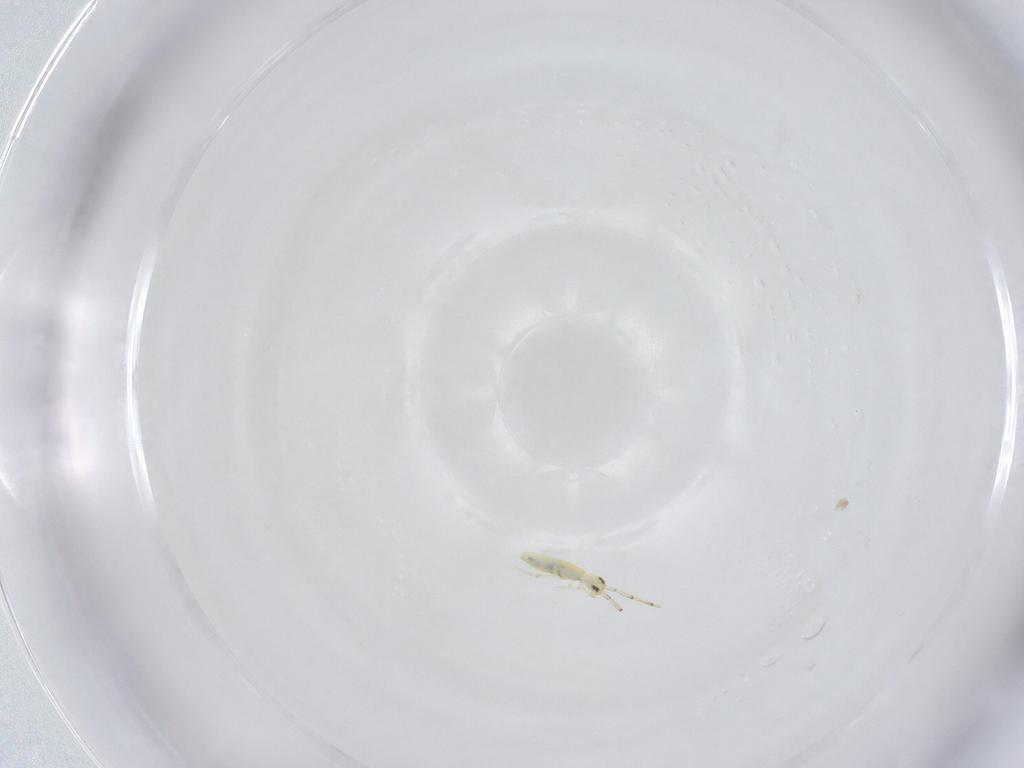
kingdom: Animalia
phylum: Arthropoda
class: Collembola
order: Entomobryomorpha
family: Paronellidae
